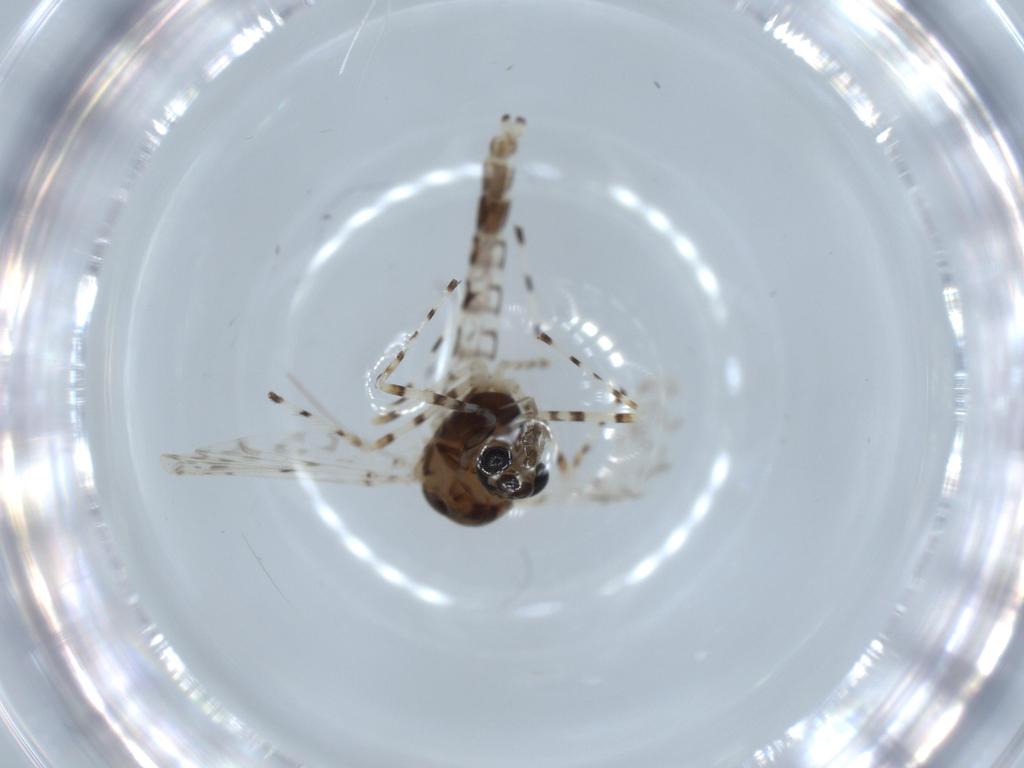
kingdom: Animalia
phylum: Arthropoda
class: Insecta
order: Diptera
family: Chironomidae
